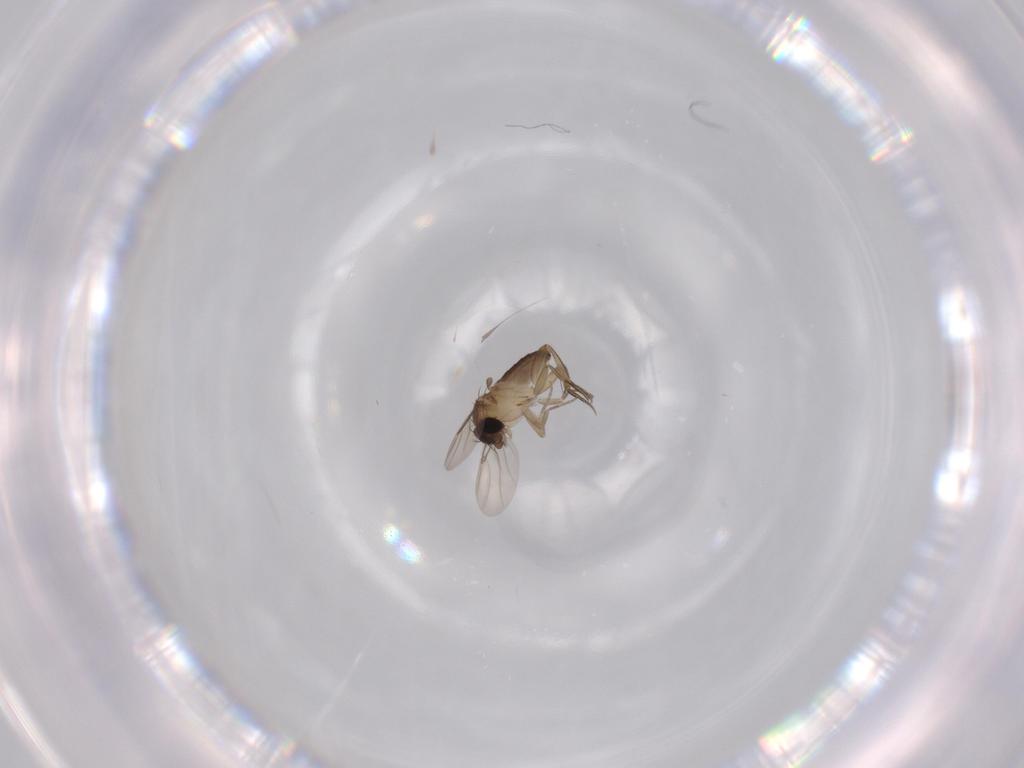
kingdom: Animalia
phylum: Arthropoda
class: Insecta
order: Diptera
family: Phoridae
